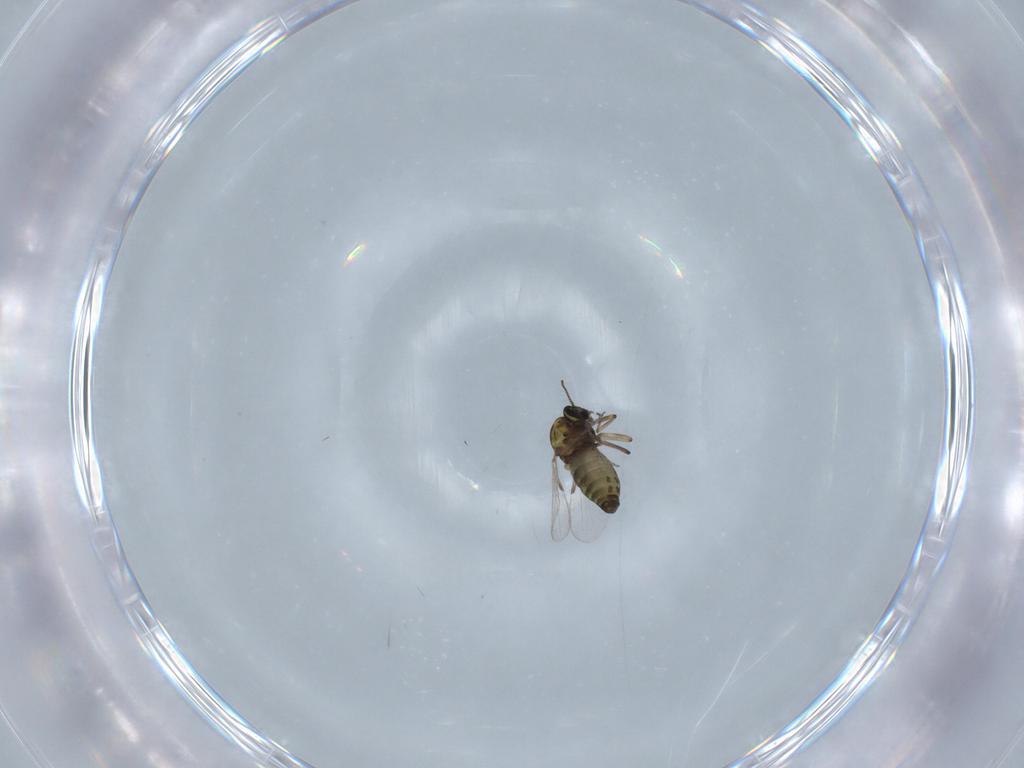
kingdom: Animalia
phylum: Arthropoda
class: Insecta
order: Diptera
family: Ceratopogonidae
